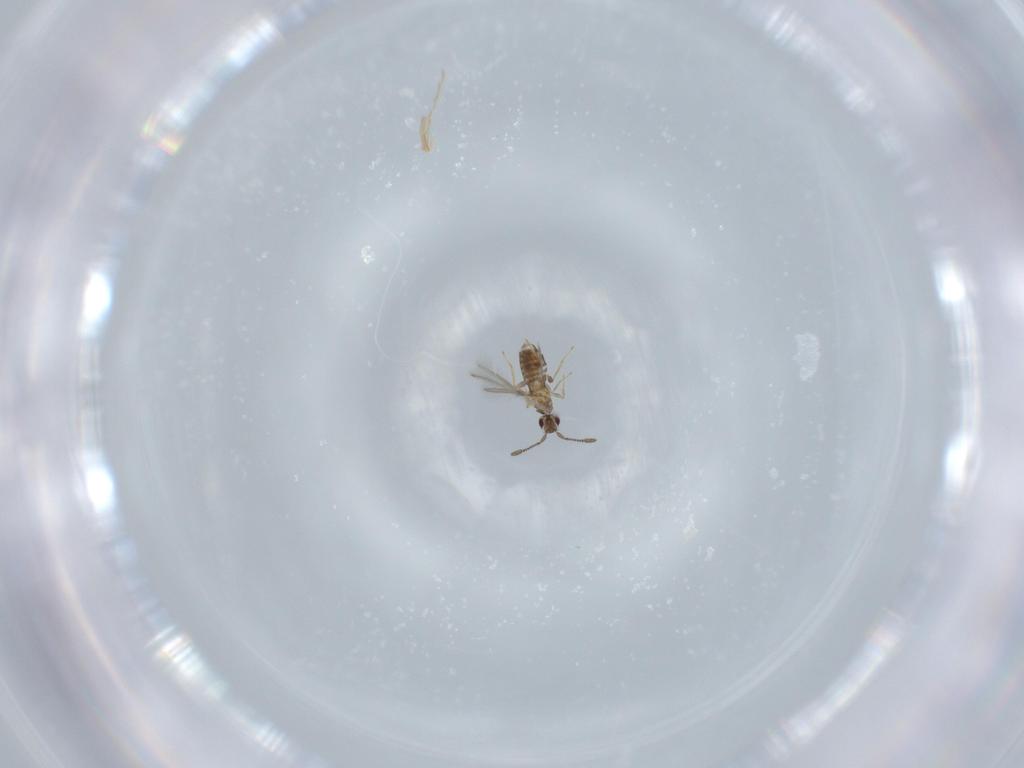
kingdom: Animalia
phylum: Arthropoda
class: Insecta
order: Hymenoptera
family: Mymaridae
